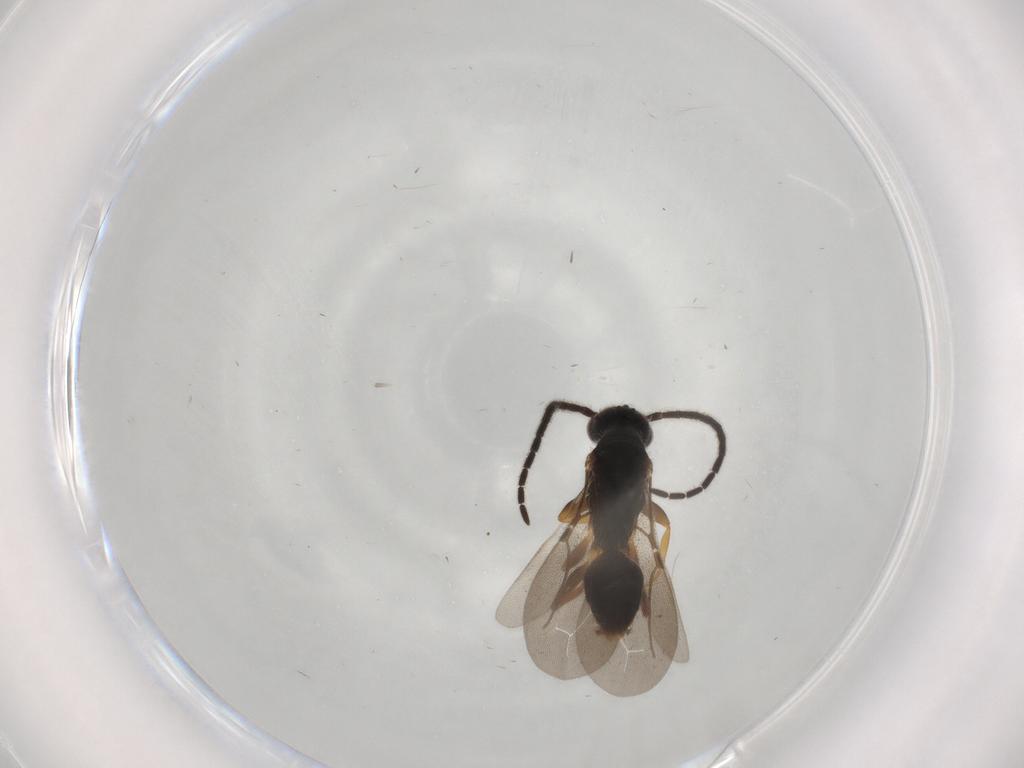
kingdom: Animalia
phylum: Arthropoda
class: Insecta
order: Hymenoptera
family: Bethylidae
